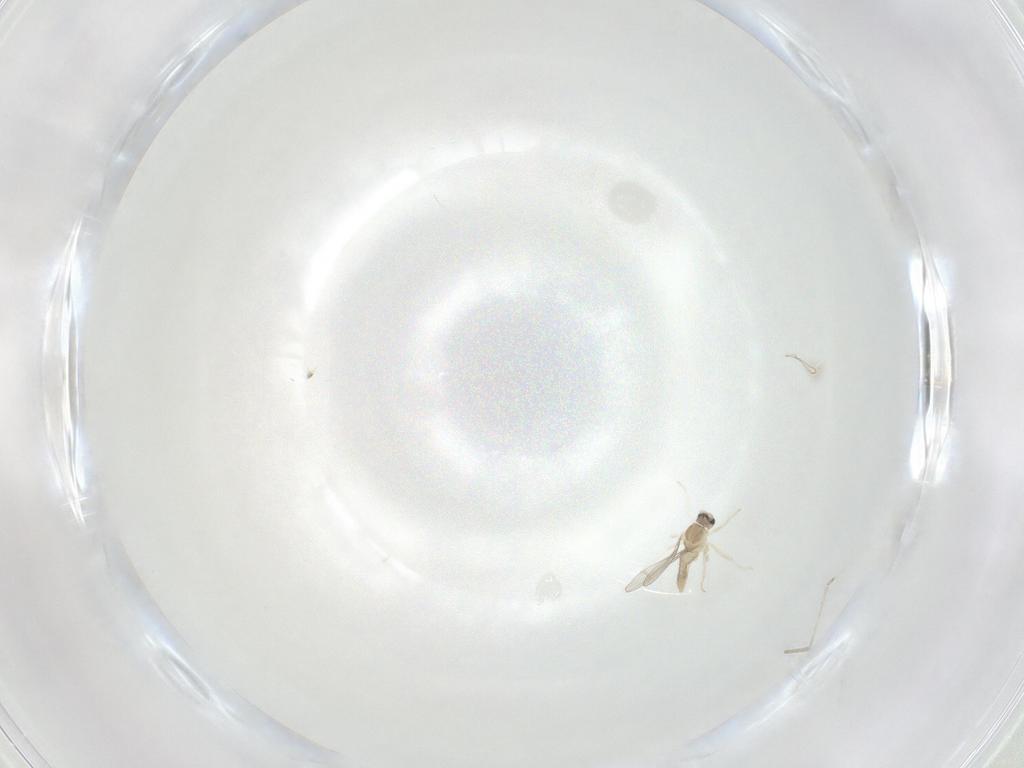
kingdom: Animalia
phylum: Arthropoda
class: Insecta
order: Diptera
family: Cecidomyiidae
